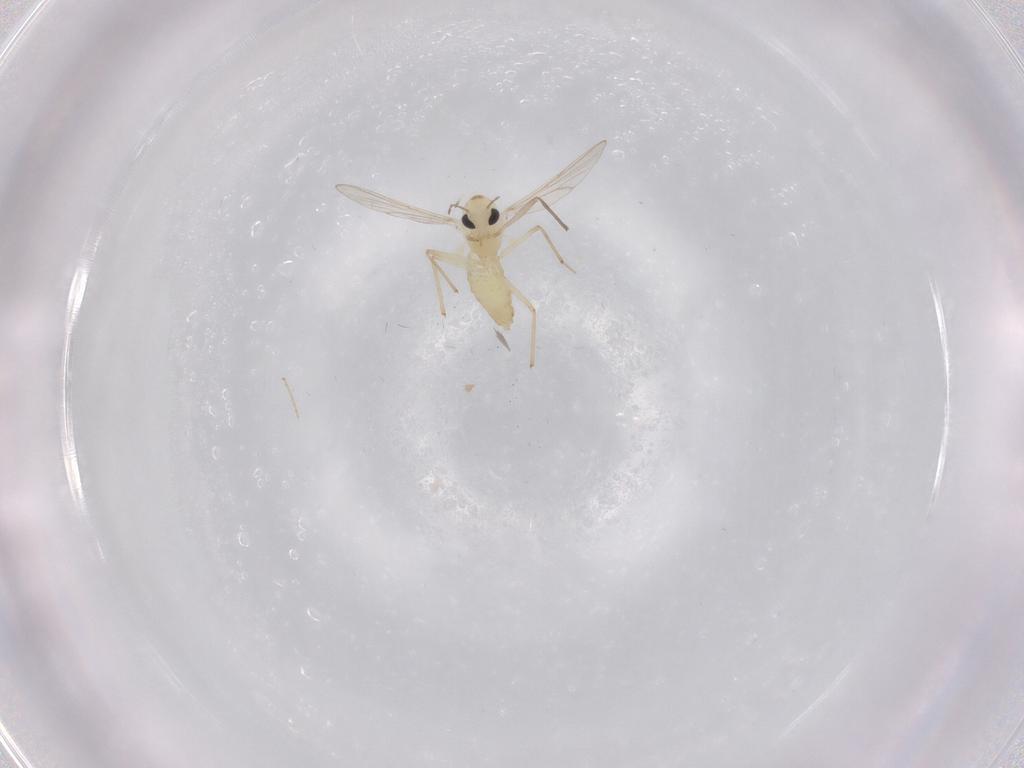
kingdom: Animalia
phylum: Arthropoda
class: Insecta
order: Diptera
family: Chironomidae
